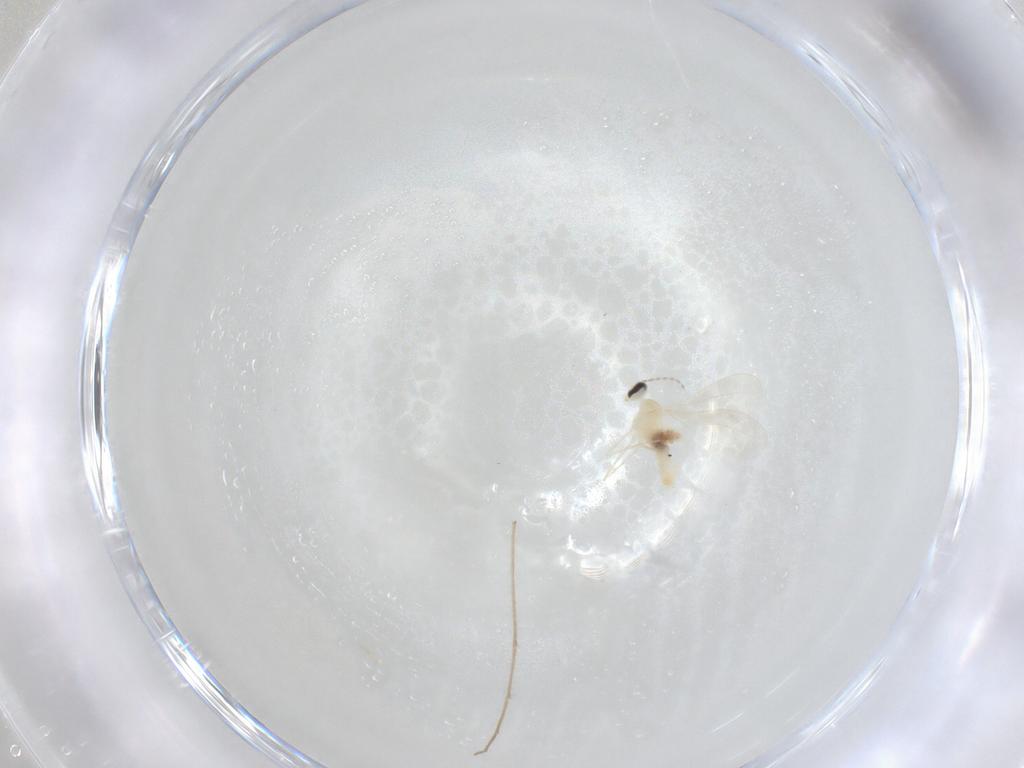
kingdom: Animalia
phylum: Arthropoda
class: Insecta
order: Diptera
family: Cecidomyiidae
